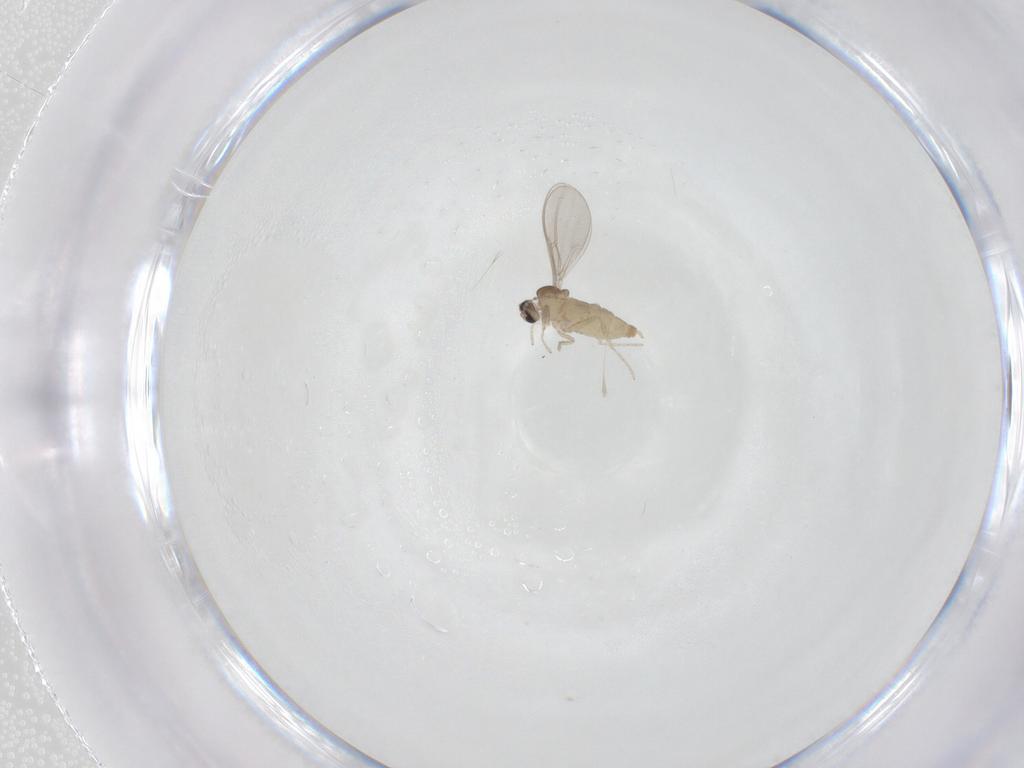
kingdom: Animalia
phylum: Arthropoda
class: Insecta
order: Diptera
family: Cecidomyiidae
